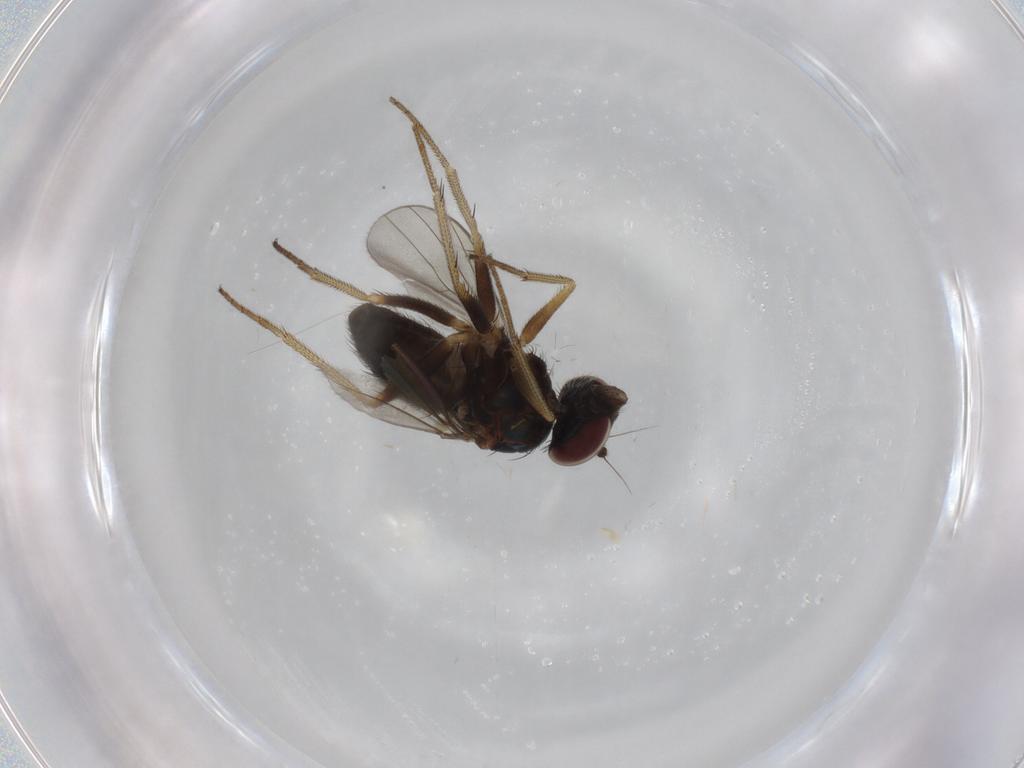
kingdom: Animalia
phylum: Arthropoda
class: Insecta
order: Diptera
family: Dolichopodidae
